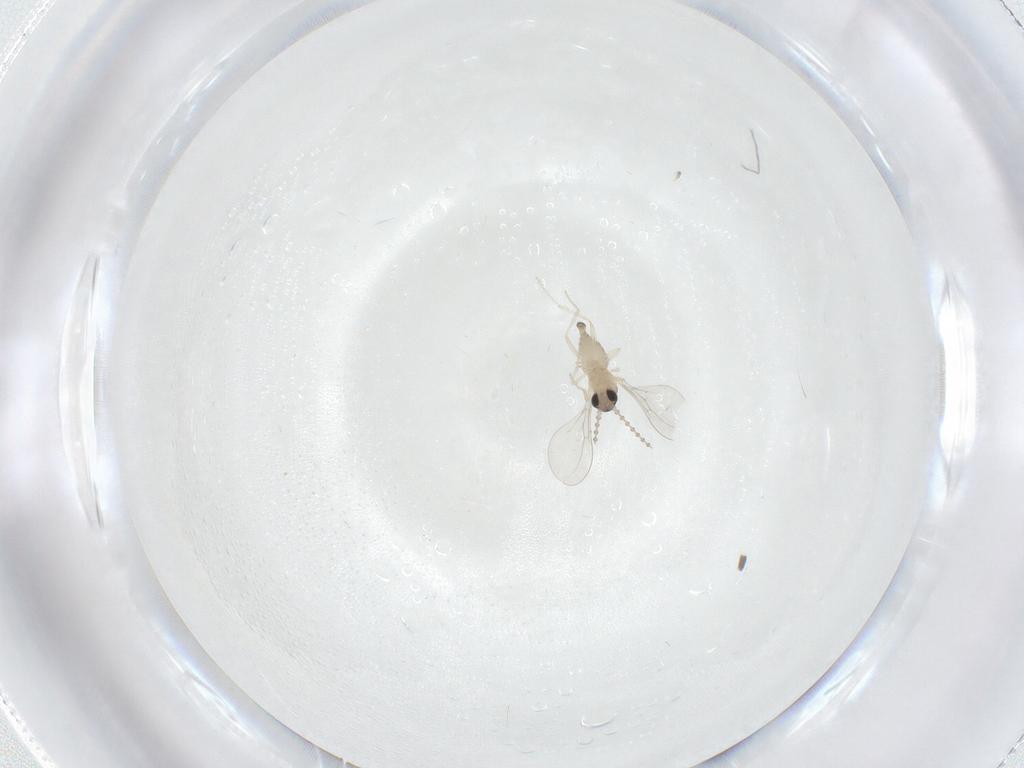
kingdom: Animalia
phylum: Arthropoda
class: Insecta
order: Diptera
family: Cecidomyiidae
